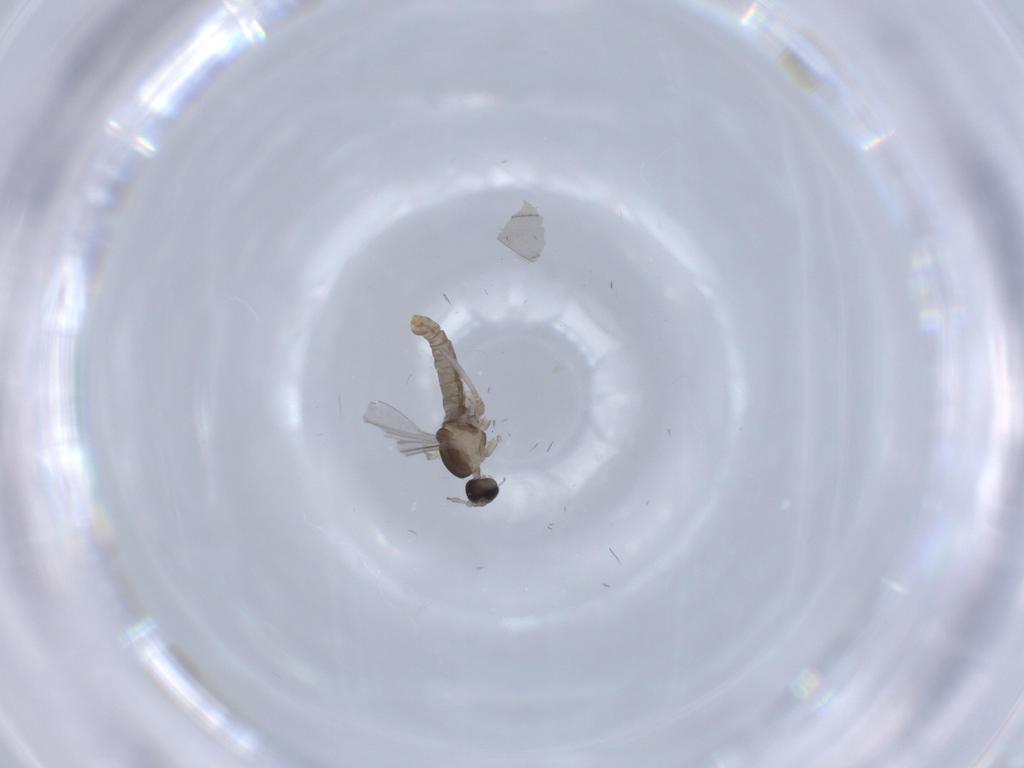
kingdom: Animalia
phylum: Arthropoda
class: Insecta
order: Diptera
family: Cecidomyiidae
